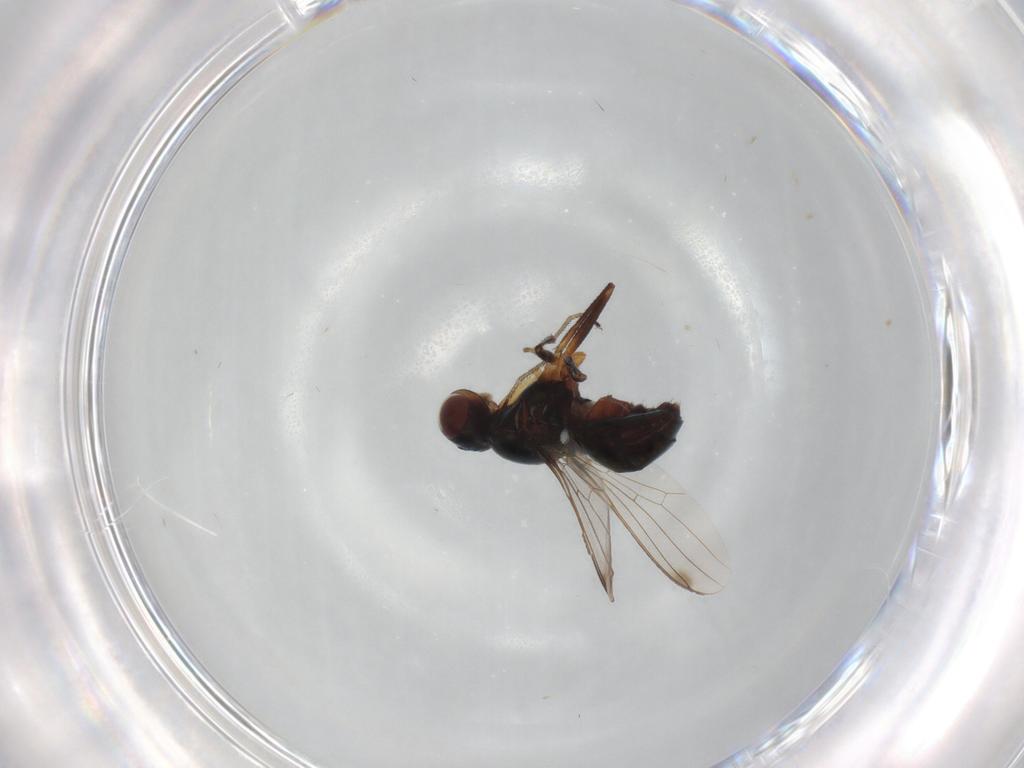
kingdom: Animalia
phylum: Arthropoda
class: Insecta
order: Diptera
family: Sepsidae
